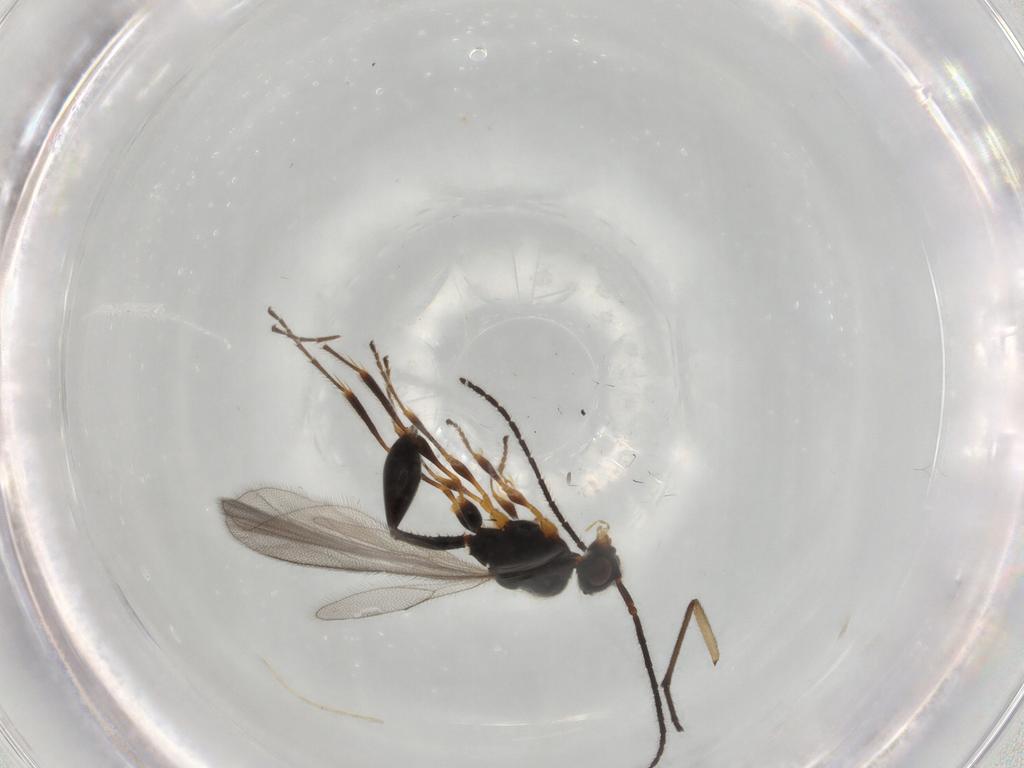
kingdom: Animalia
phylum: Arthropoda
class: Insecta
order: Hymenoptera
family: Diapriidae
